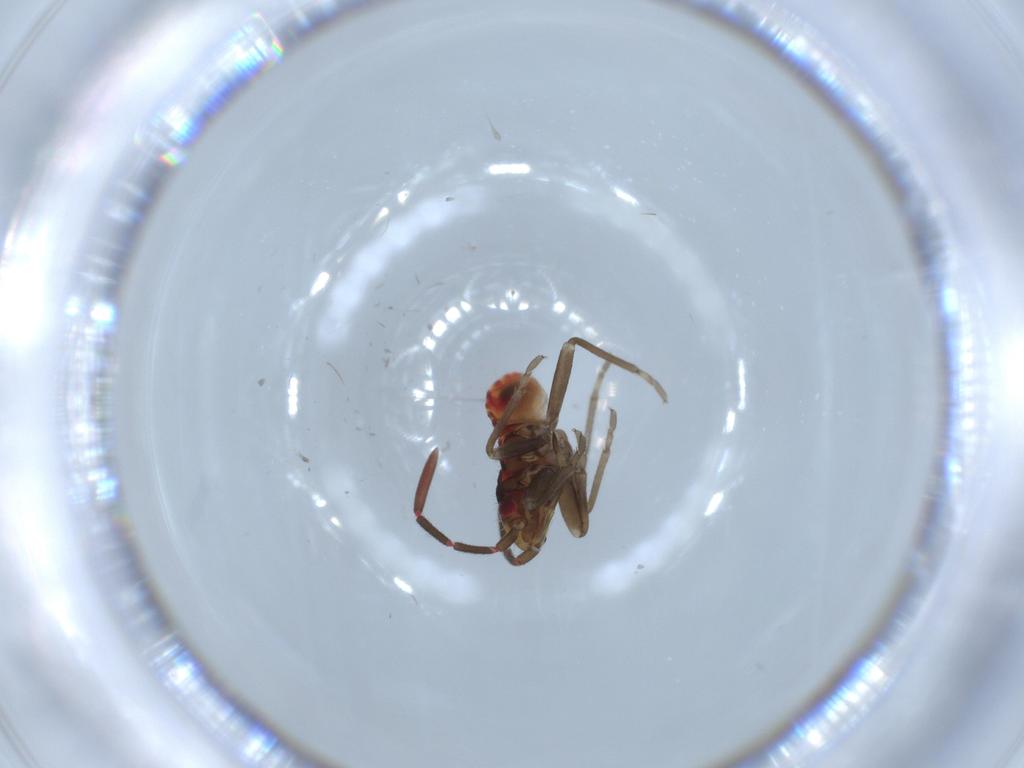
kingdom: Animalia
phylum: Arthropoda
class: Insecta
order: Hemiptera
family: Rhyparochromidae
